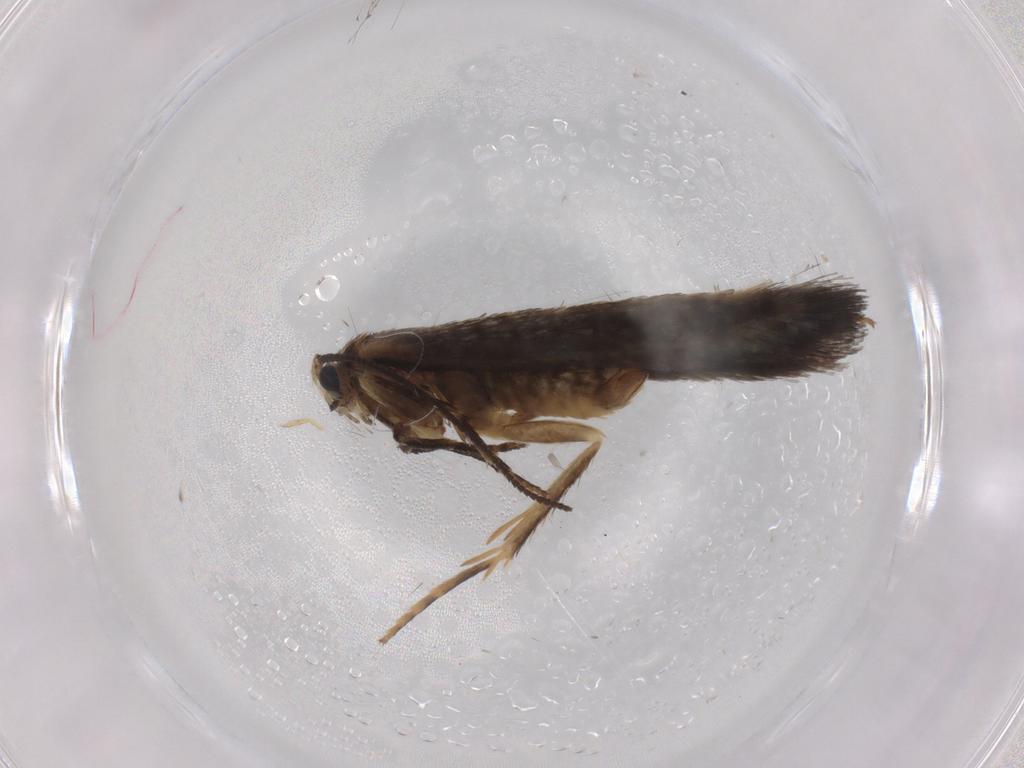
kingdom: Animalia
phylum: Arthropoda
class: Insecta
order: Lepidoptera
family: Nepticulidae
